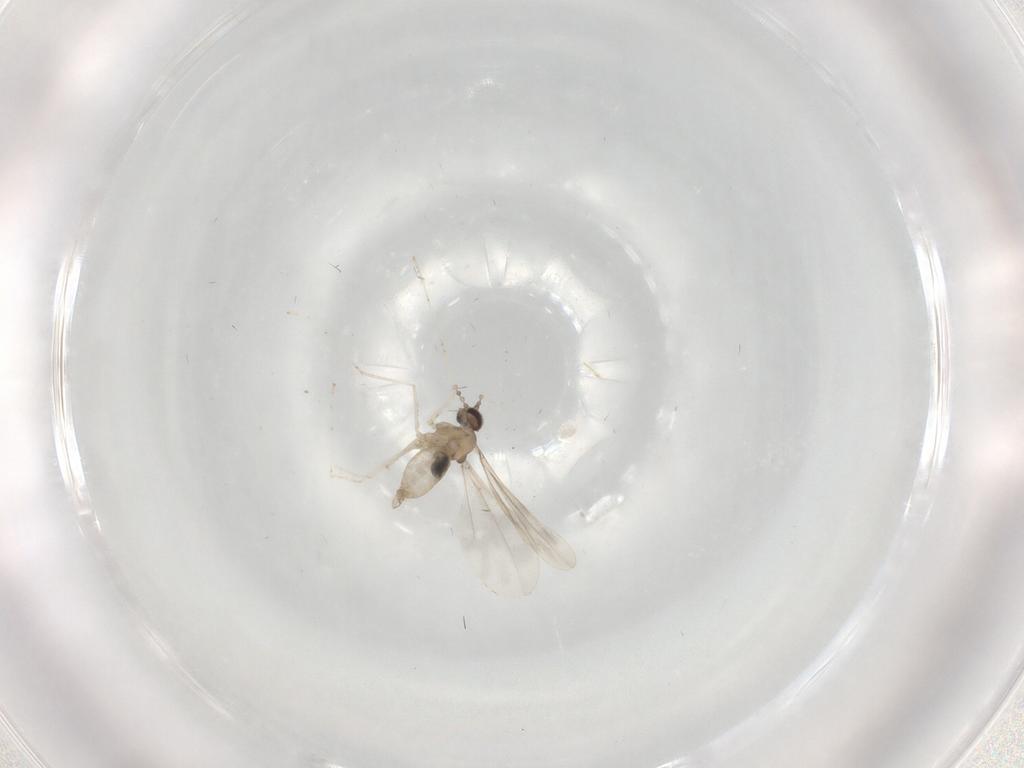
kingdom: Animalia
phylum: Arthropoda
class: Insecta
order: Diptera
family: Cecidomyiidae
